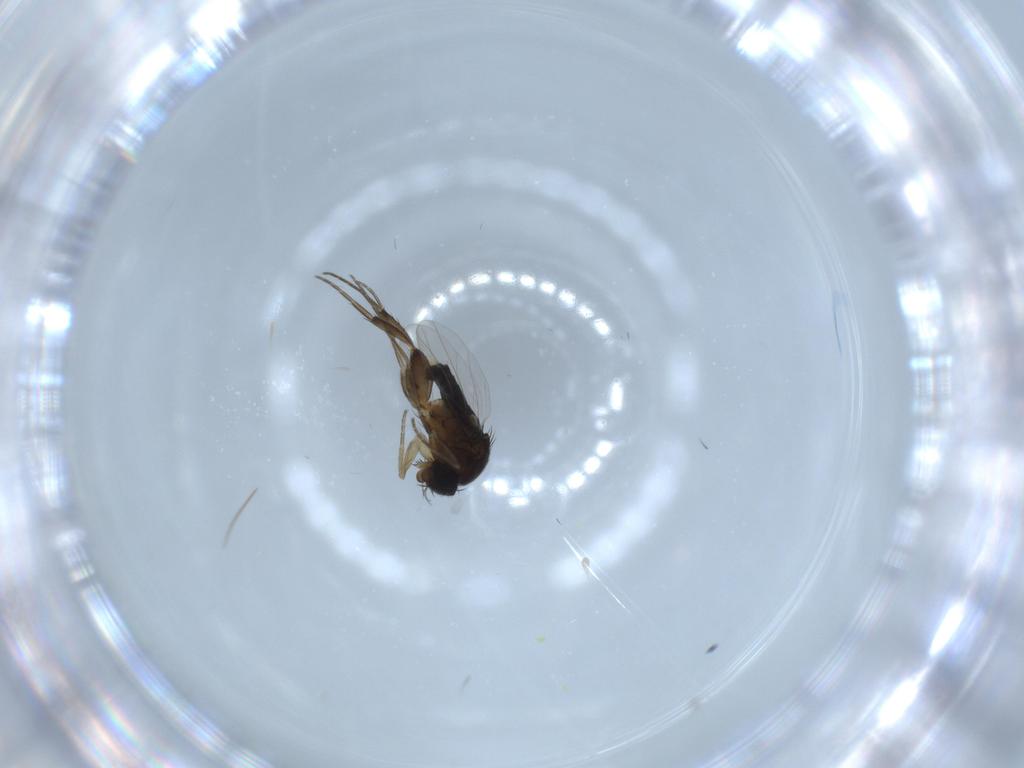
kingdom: Animalia
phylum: Arthropoda
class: Insecta
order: Diptera
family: Phoridae
